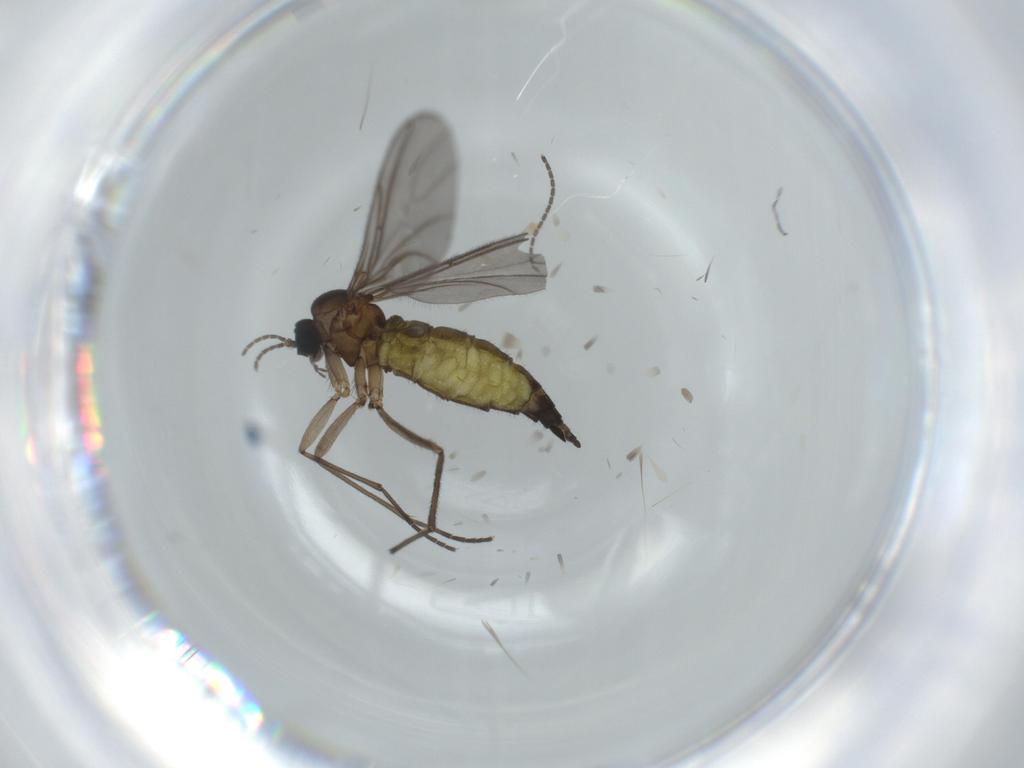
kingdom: Animalia
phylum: Arthropoda
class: Insecta
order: Diptera
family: Sciaridae
